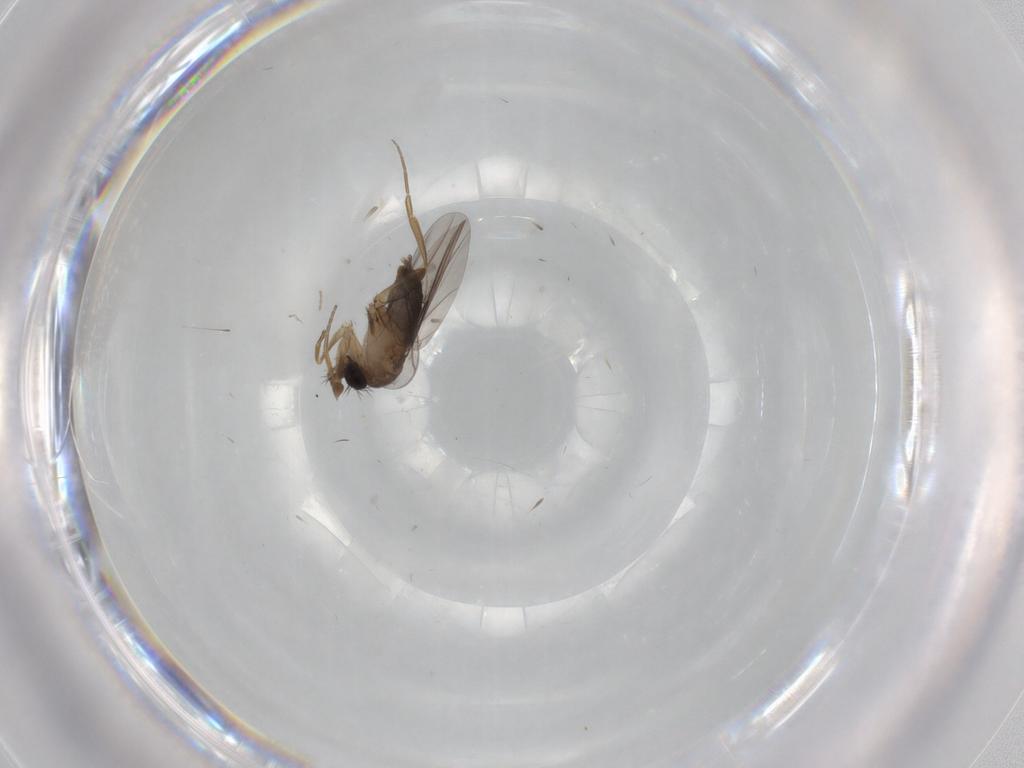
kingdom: Animalia
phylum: Arthropoda
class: Insecta
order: Diptera
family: Phoridae
